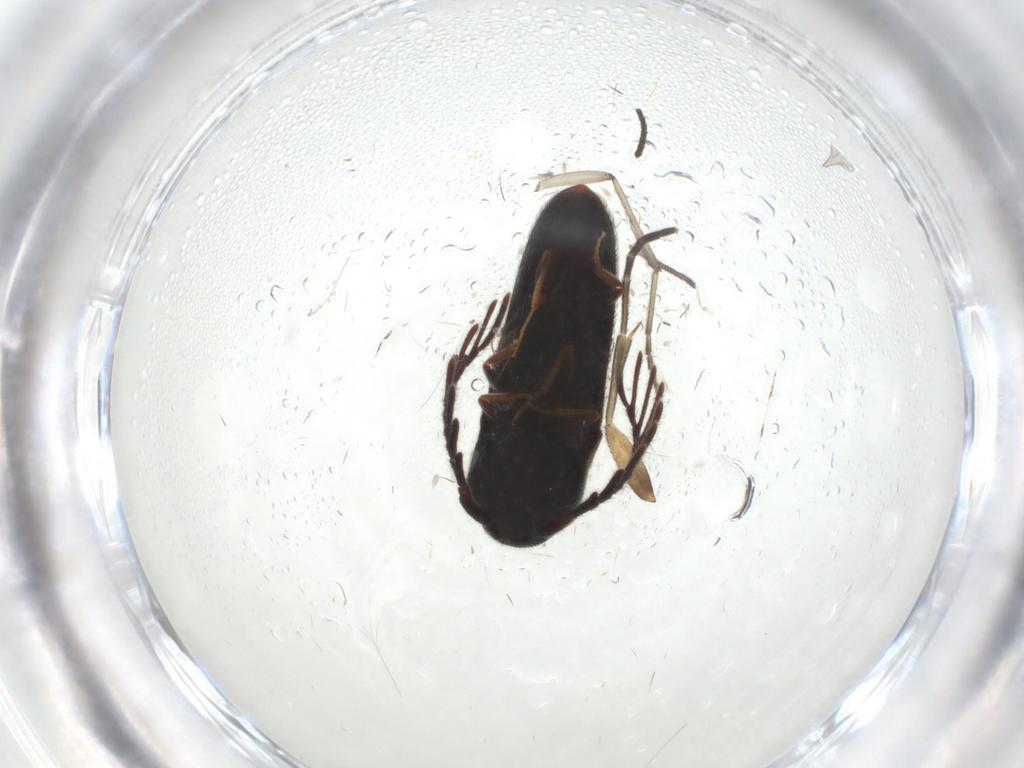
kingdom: Animalia
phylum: Arthropoda
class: Insecta
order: Coleoptera
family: Eucnemidae
